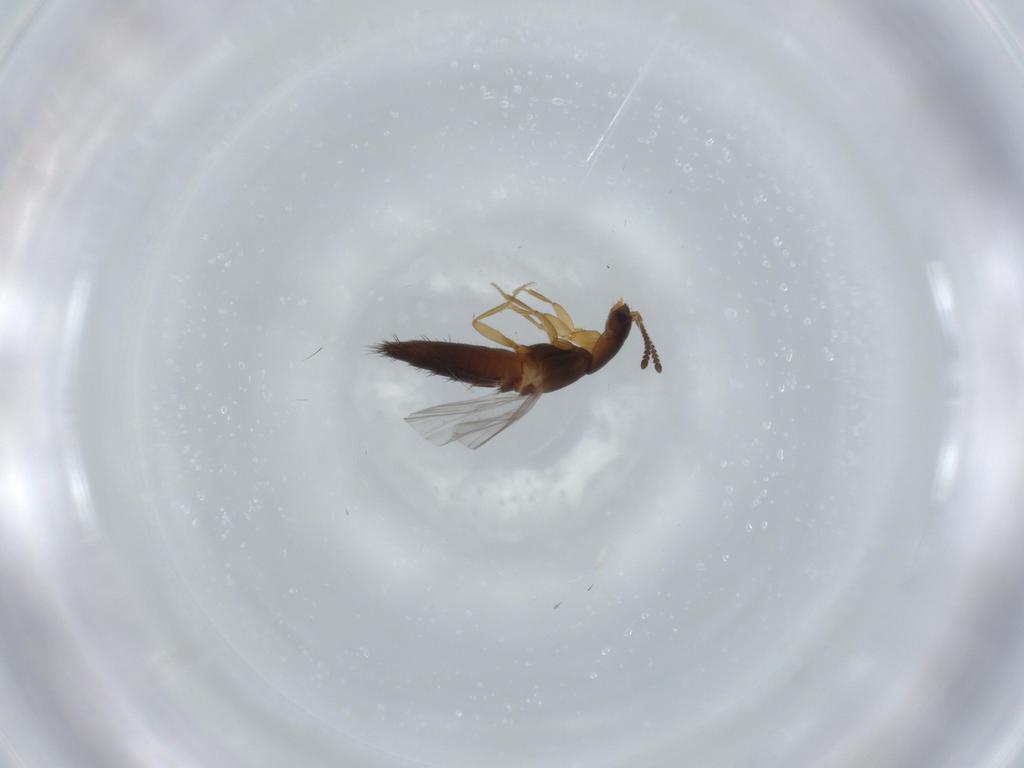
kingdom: Animalia
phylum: Arthropoda
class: Insecta
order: Coleoptera
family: Staphylinidae
